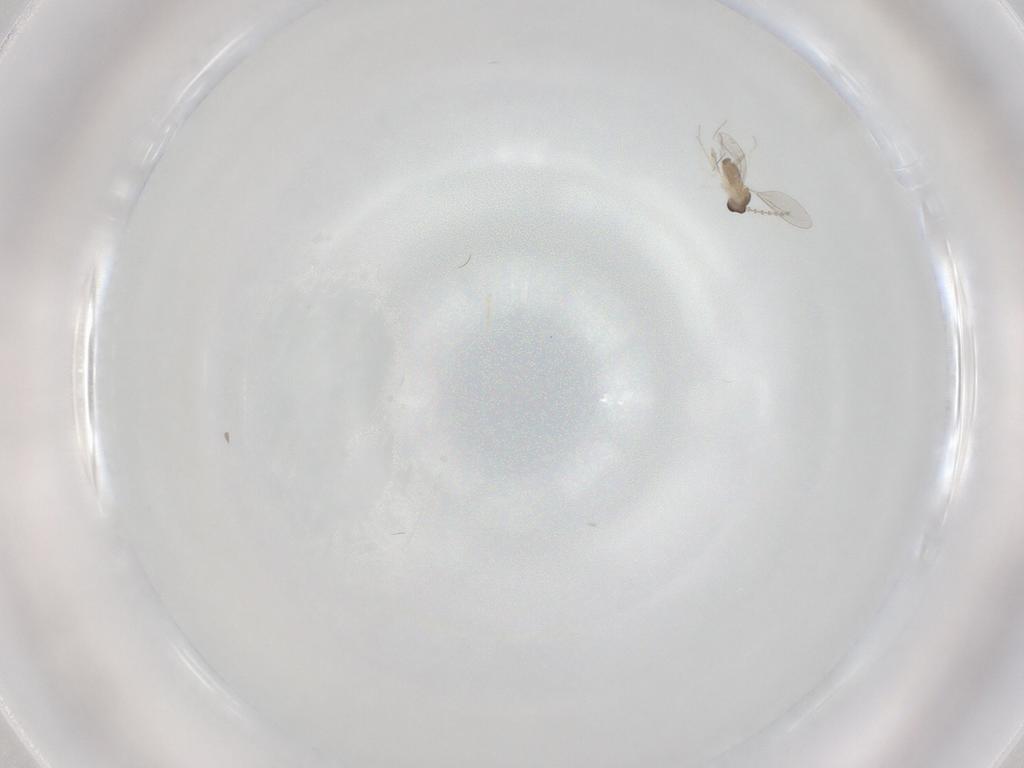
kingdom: Animalia
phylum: Arthropoda
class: Insecta
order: Diptera
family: Cecidomyiidae
